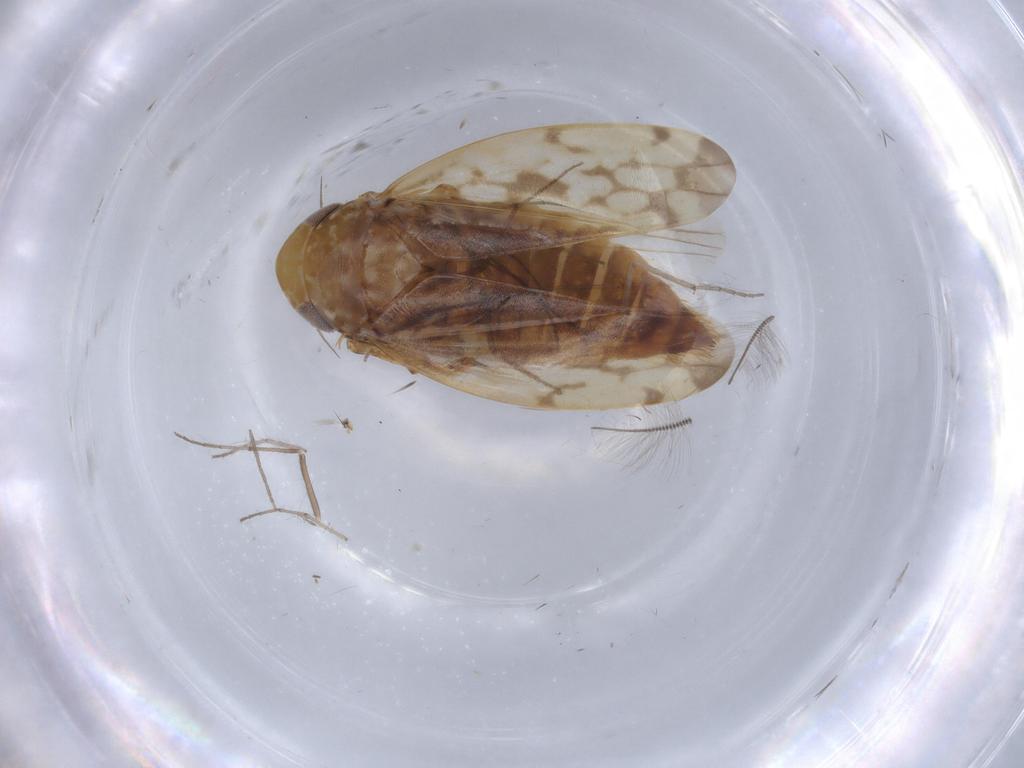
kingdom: Animalia
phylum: Arthropoda
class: Insecta
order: Hemiptera
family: Cicadellidae
